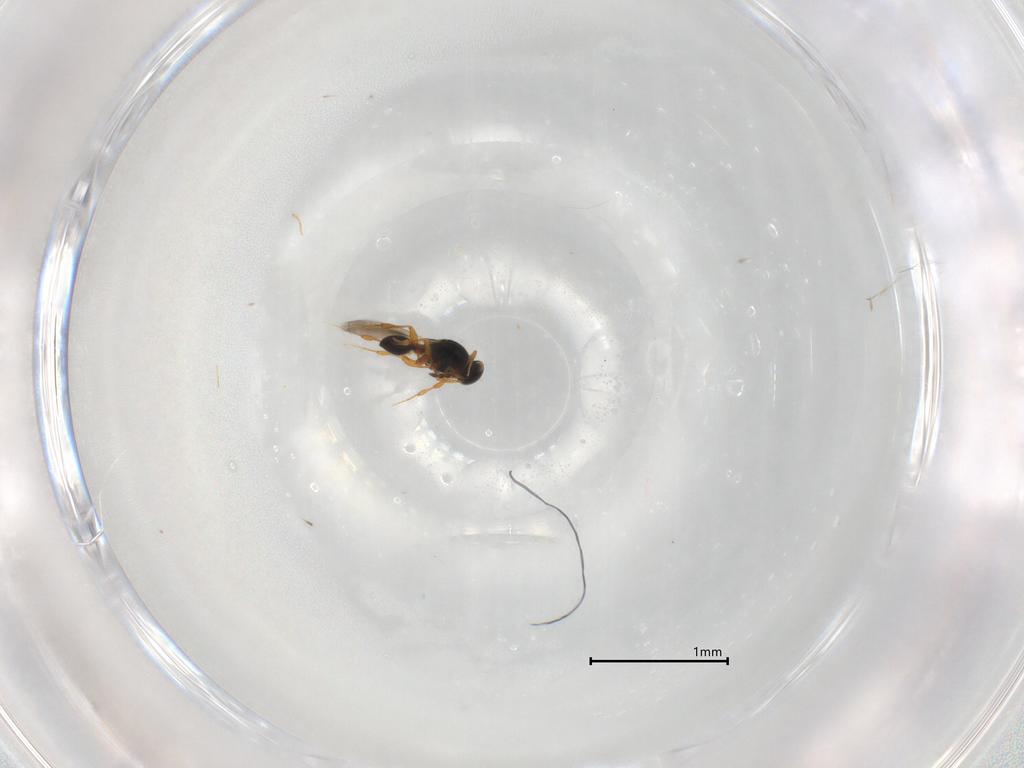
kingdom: Animalia
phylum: Arthropoda
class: Insecta
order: Hymenoptera
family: Platygastridae
